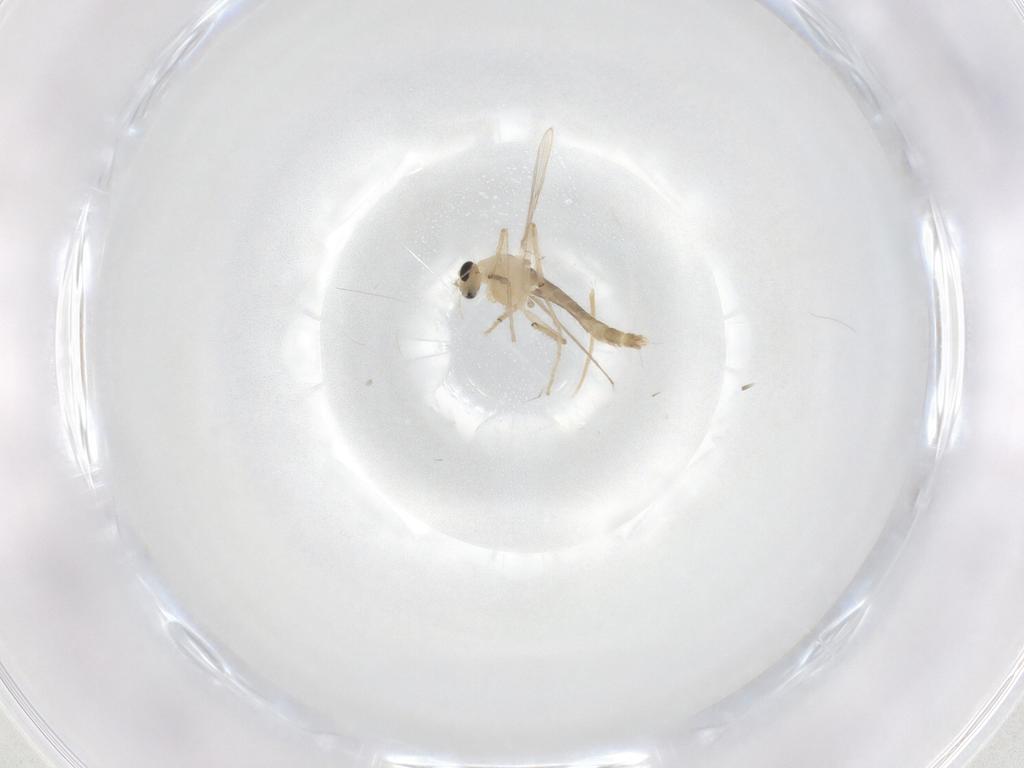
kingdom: Animalia
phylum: Arthropoda
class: Insecta
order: Diptera
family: Chironomidae
